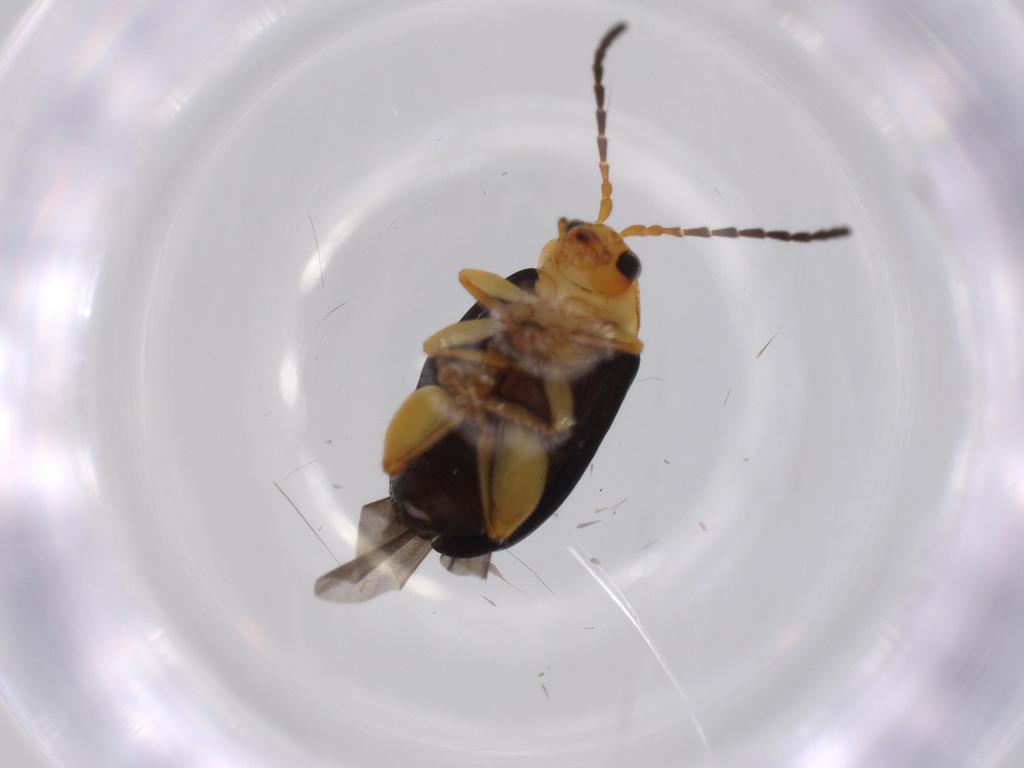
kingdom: Animalia
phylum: Arthropoda
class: Insecta
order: Coleoptera
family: Chrysomelidae
